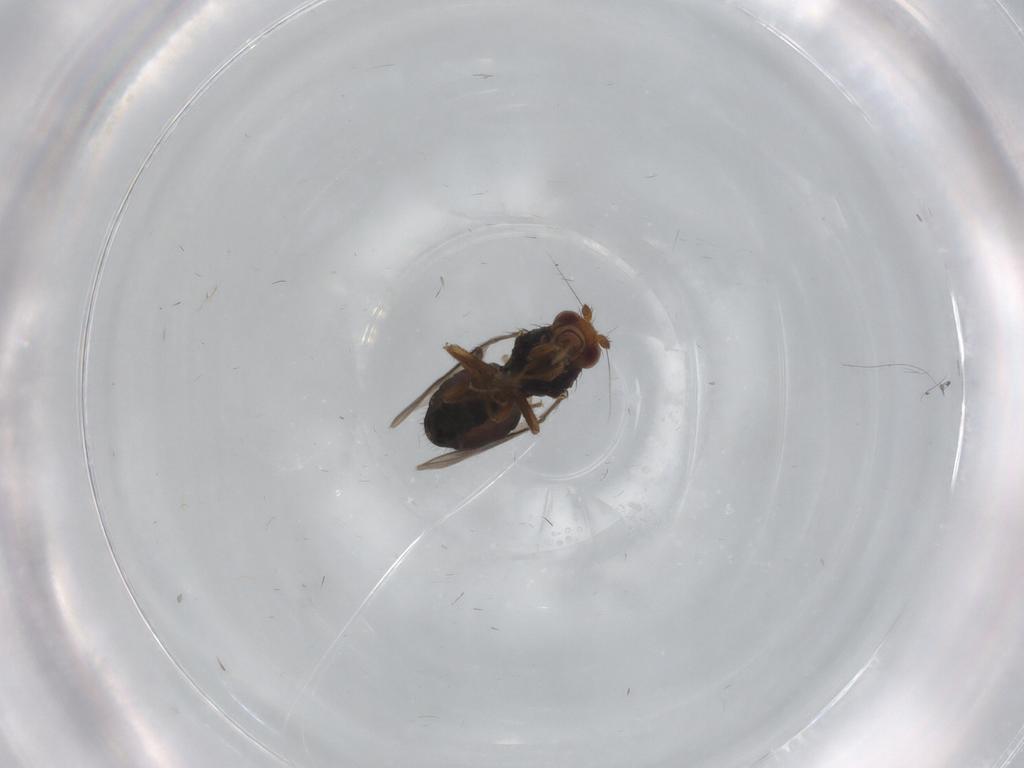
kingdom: Animalia
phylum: Arthropoda
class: Insecta
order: Diptera
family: Sphaeroceridae
